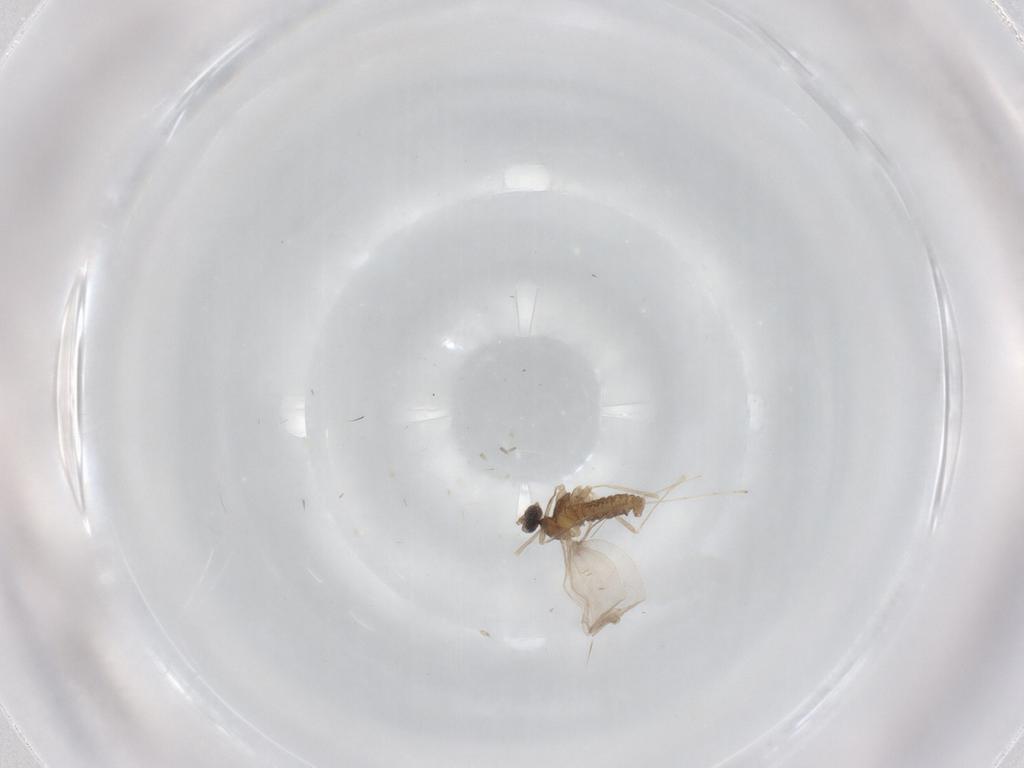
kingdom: Animalia
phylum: Arthropoda
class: Insecta
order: Diptera
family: Cecidomyiidae
